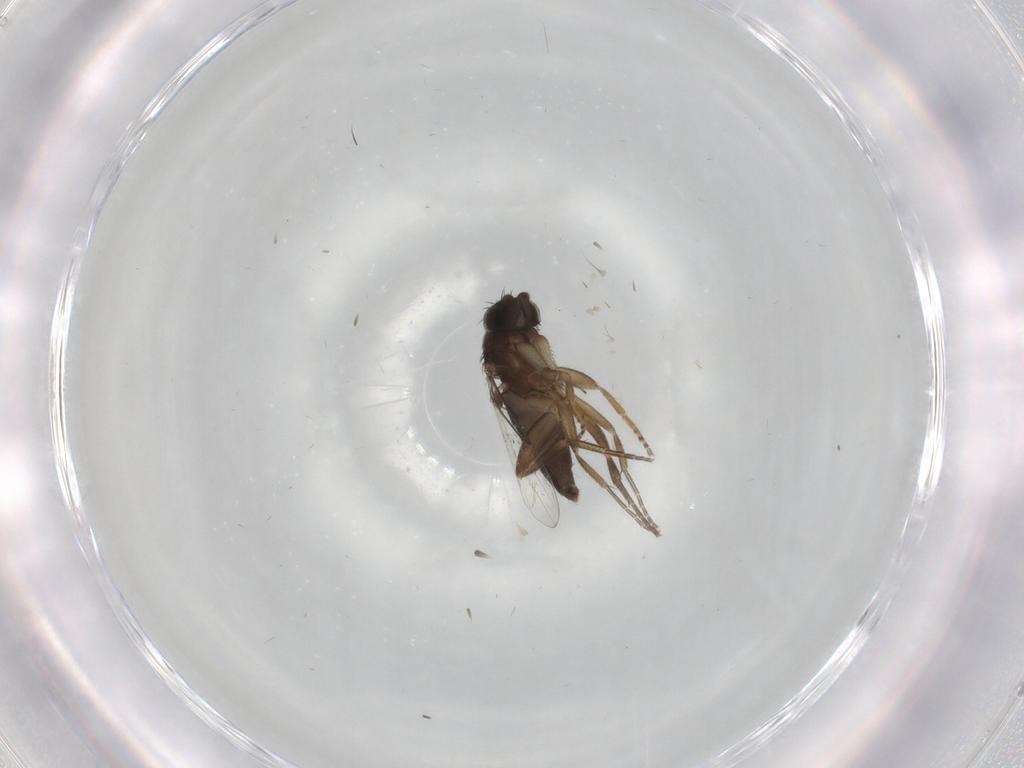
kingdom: Animalia
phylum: Arthropoda
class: Insecta
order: Diptera
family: Phoridae
